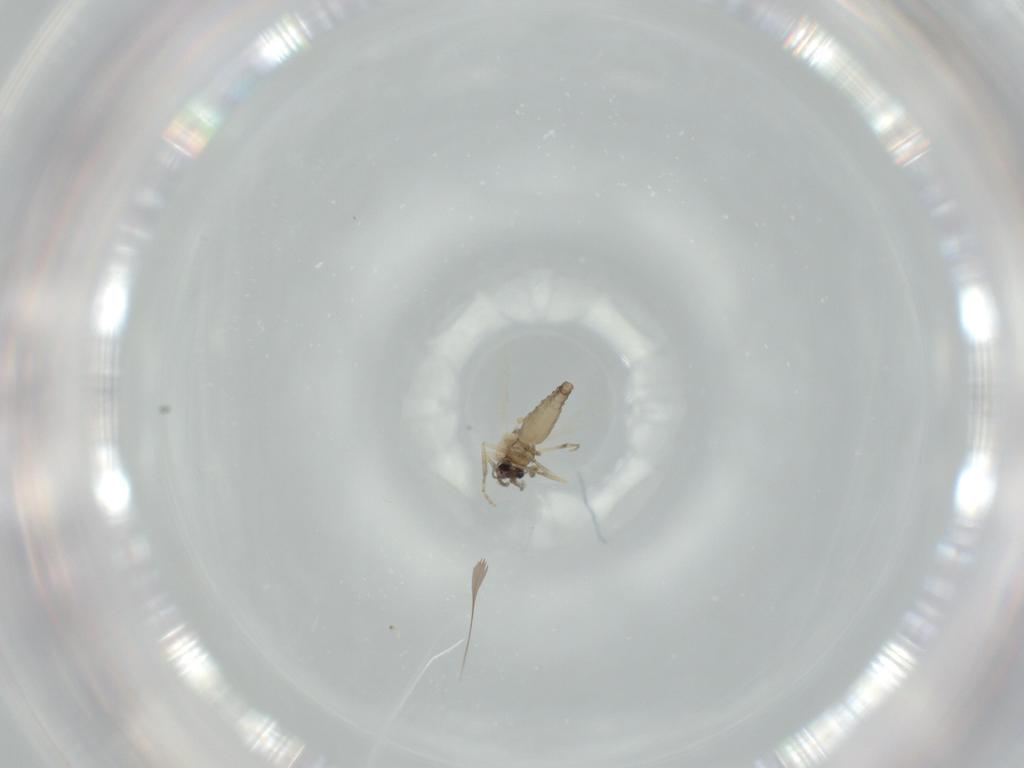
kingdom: Animalia
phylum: Arthropoda
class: Insecta
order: Diptera
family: Ceratopogonidae
